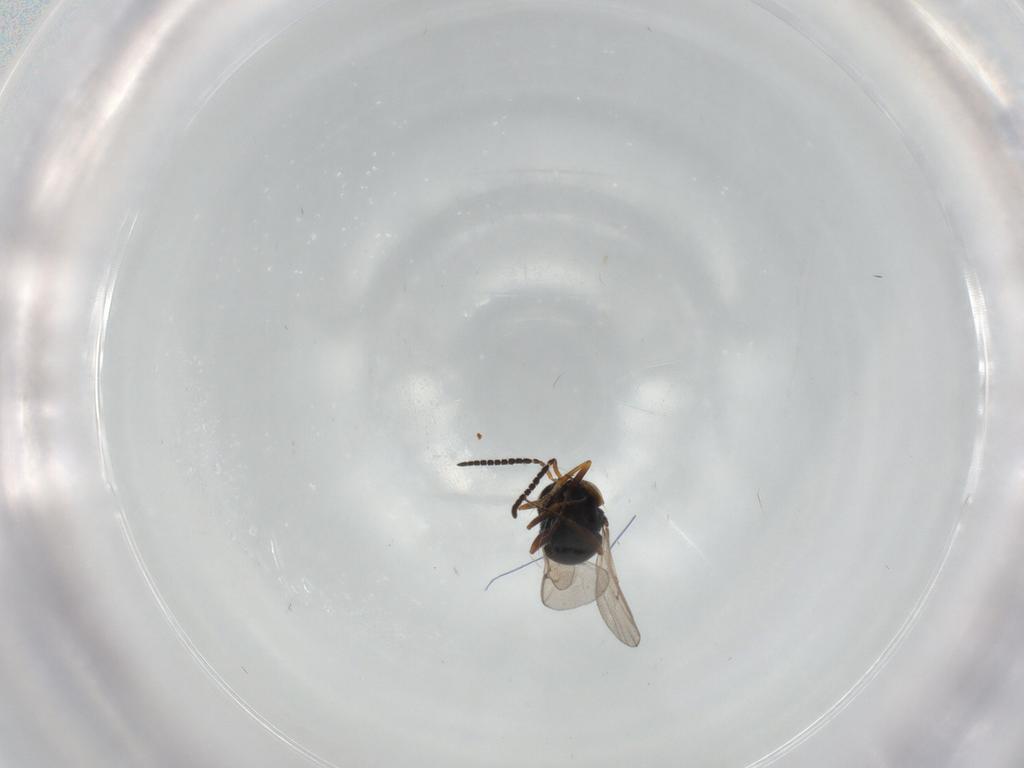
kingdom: Animalia
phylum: Arthropoda
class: Insecta
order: Hymenoptera
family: Scelionidae
